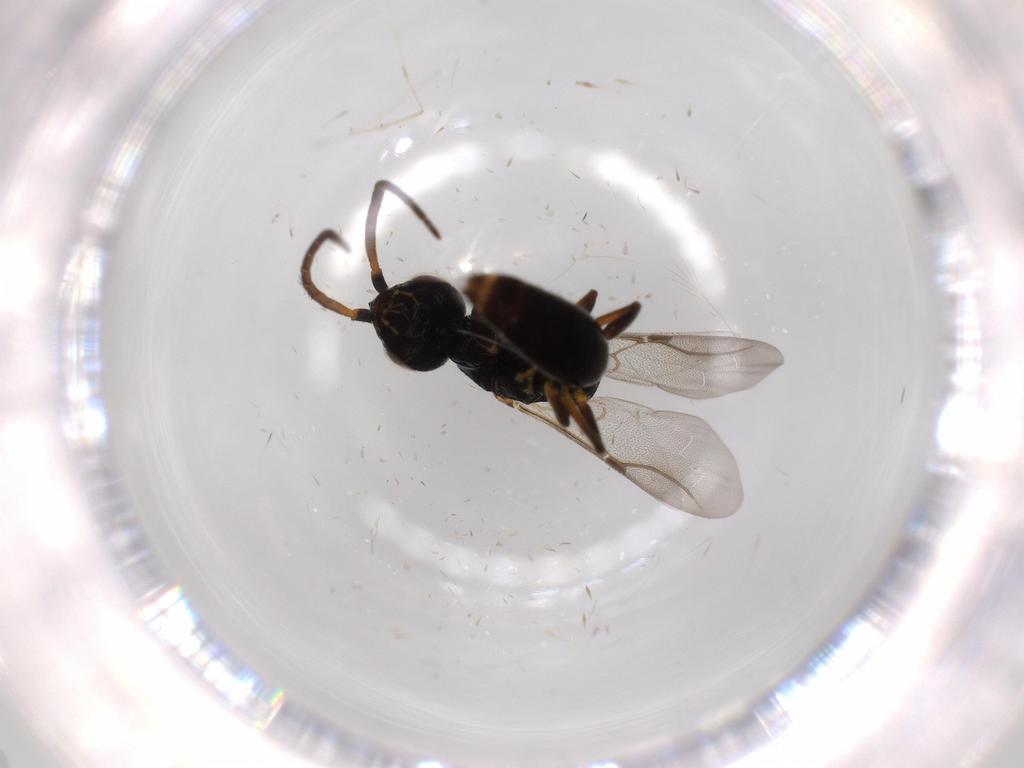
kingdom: Animalia
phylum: Arthropoda
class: Insecta
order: Hymenoptera
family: Bethylidae
